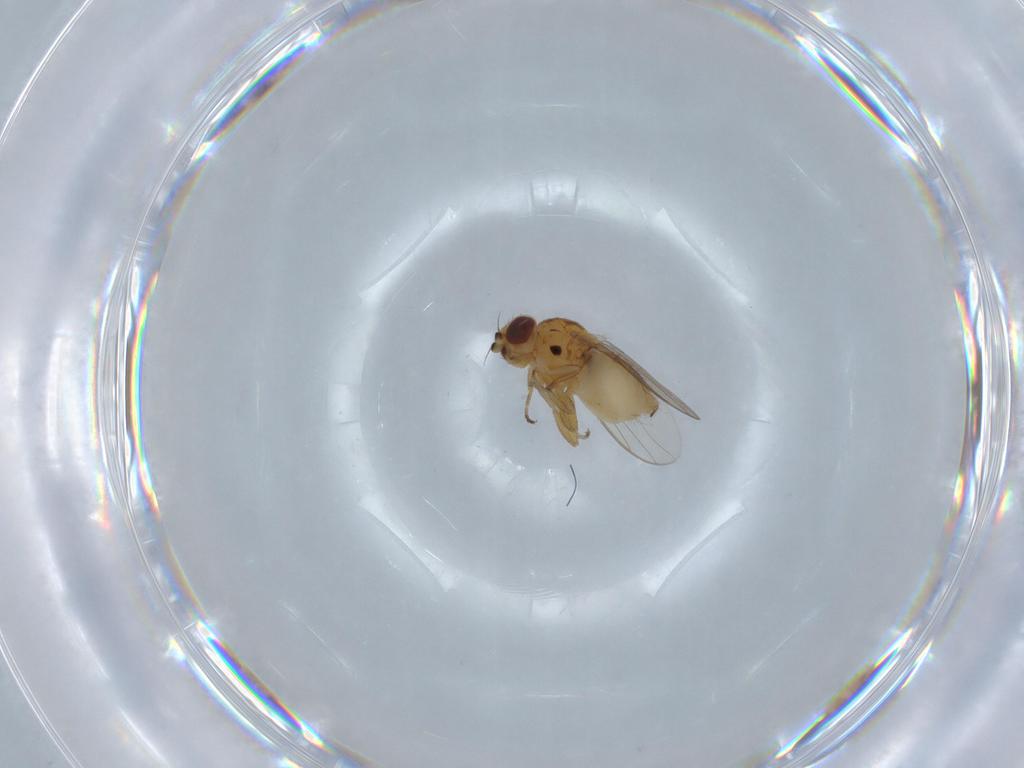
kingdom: Animalia
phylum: Arthropoda
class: Insecta
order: Diptera
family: Chloropidae
